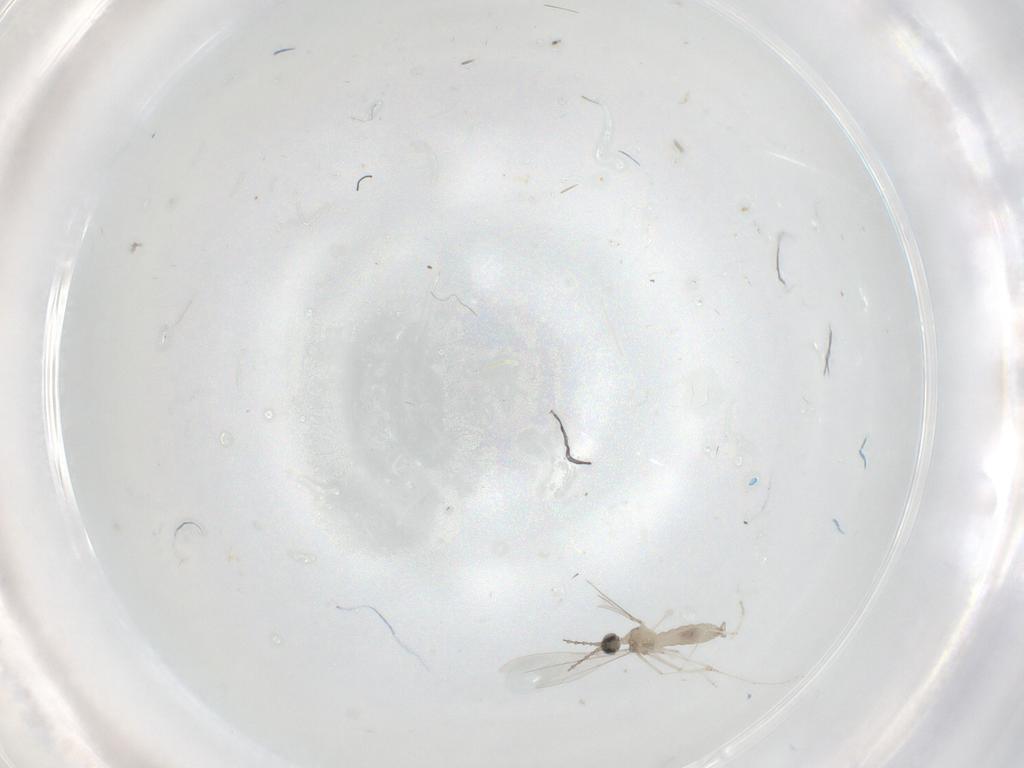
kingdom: Animalia
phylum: Arthropoda
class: Insecta
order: Diptera
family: Cecidomyiidae
